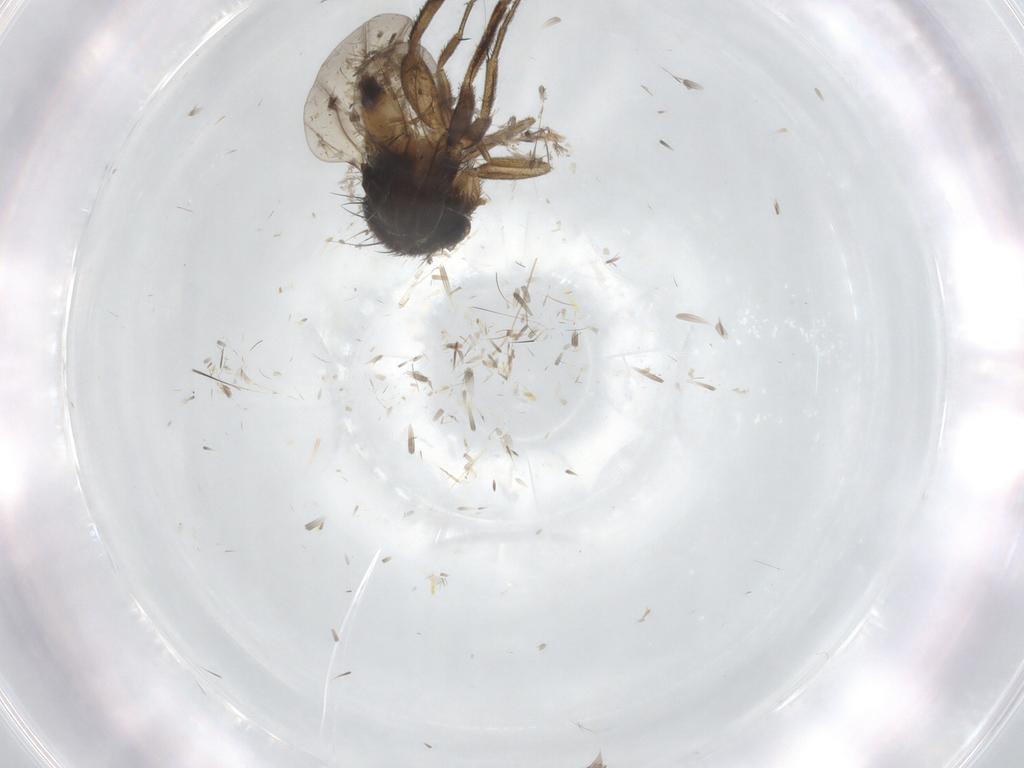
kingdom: Animalia
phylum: Arthropoda
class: Insecta
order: Diptera
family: Phoridae
